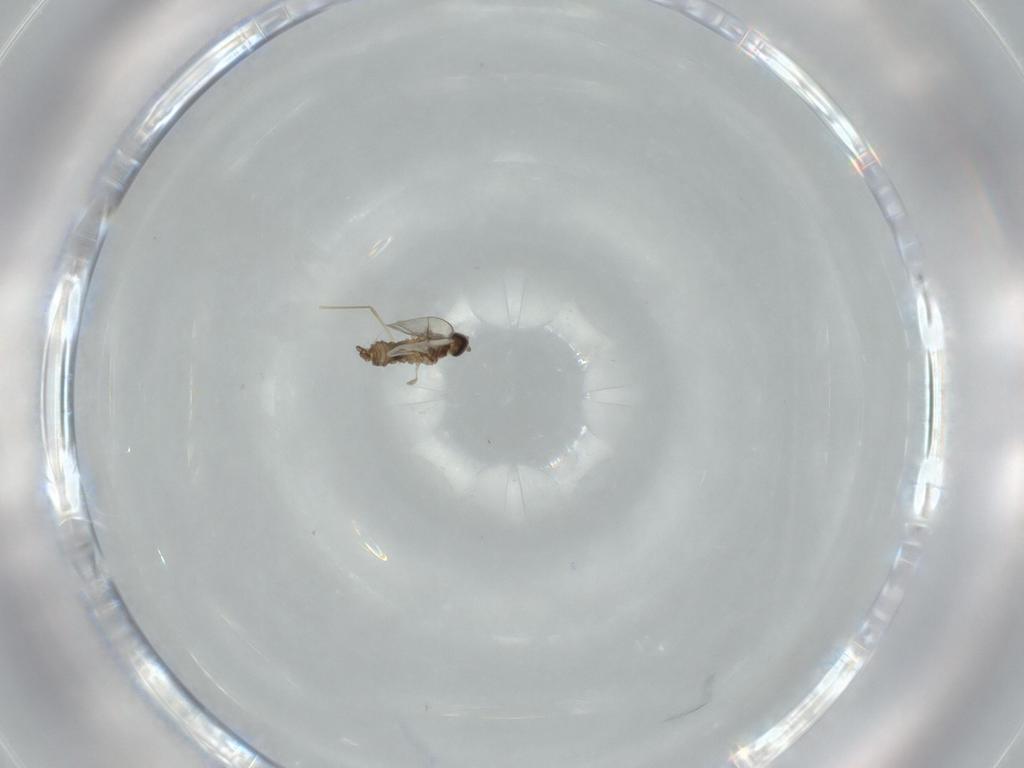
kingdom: Animalia
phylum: Arthropoda
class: Insecta
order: Diptera
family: Cecidomyiidae
